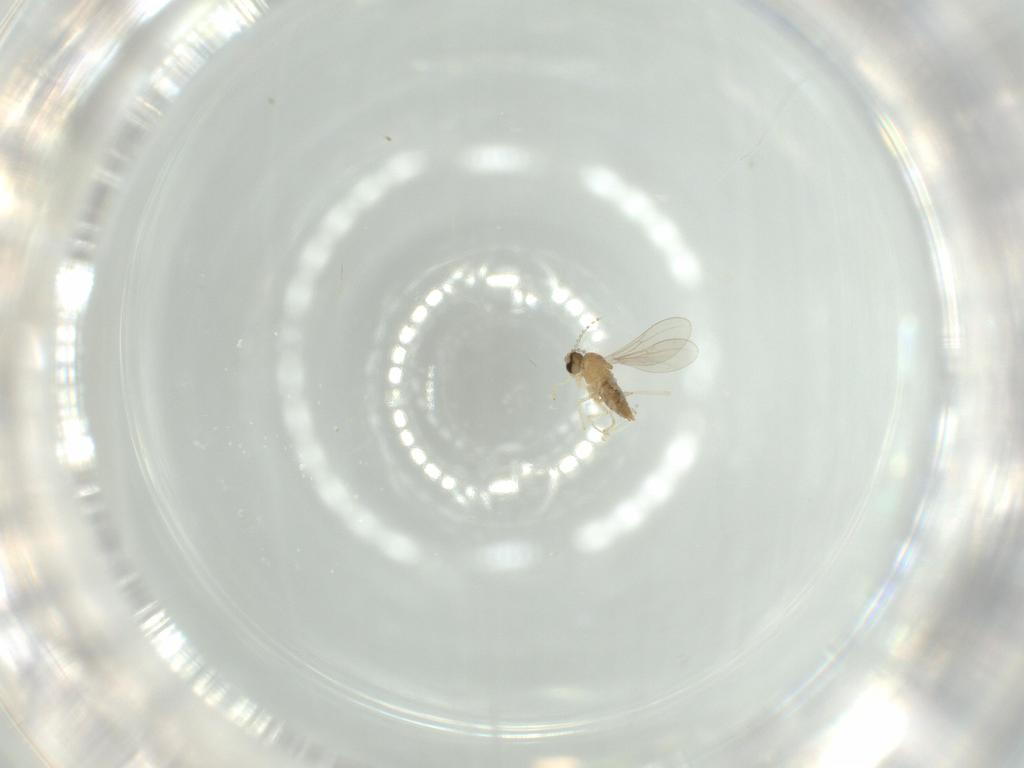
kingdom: Animalia
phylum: Arthropoda
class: Insecta
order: Diptera
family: Cecidomyiidae
